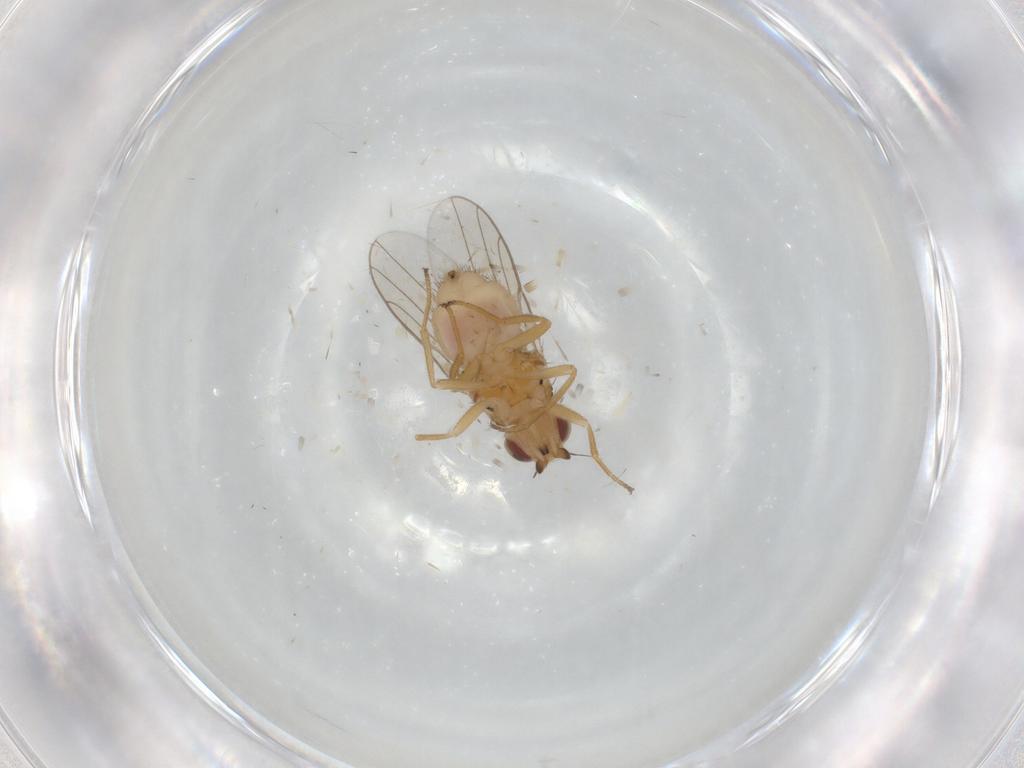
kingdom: Animalia
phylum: Arthropoda
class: Insecta
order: Diptera
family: Chloropidae
